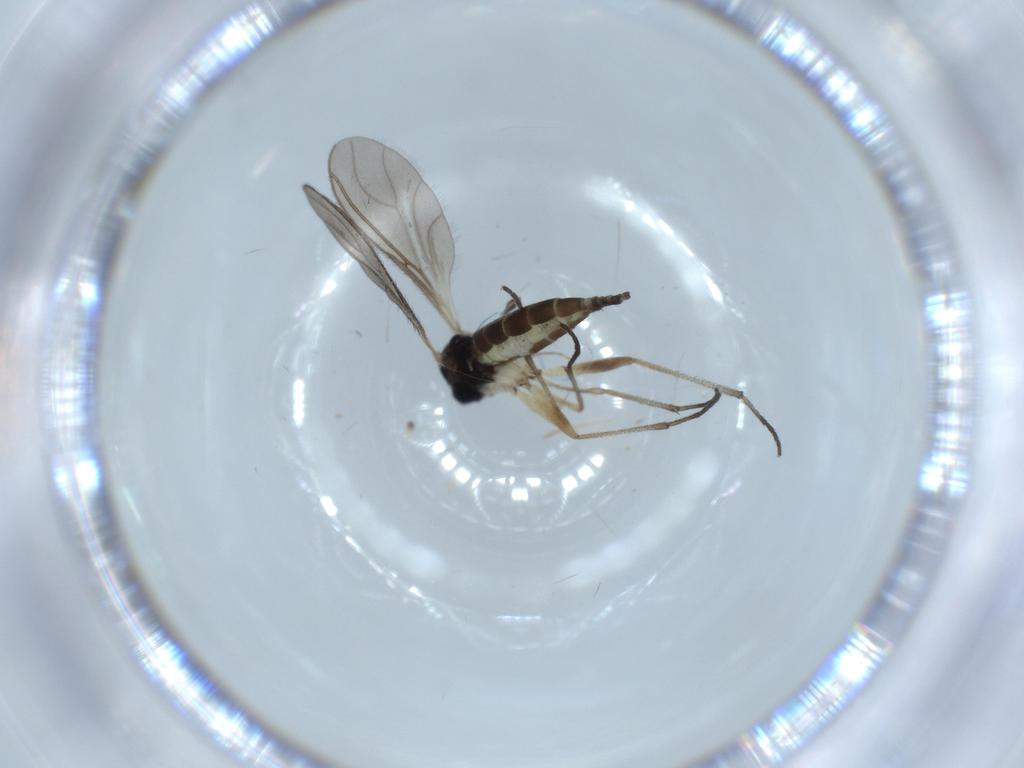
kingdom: Animalia
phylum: Arthropoda
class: Insecta
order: Diptera
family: Sciaridae
